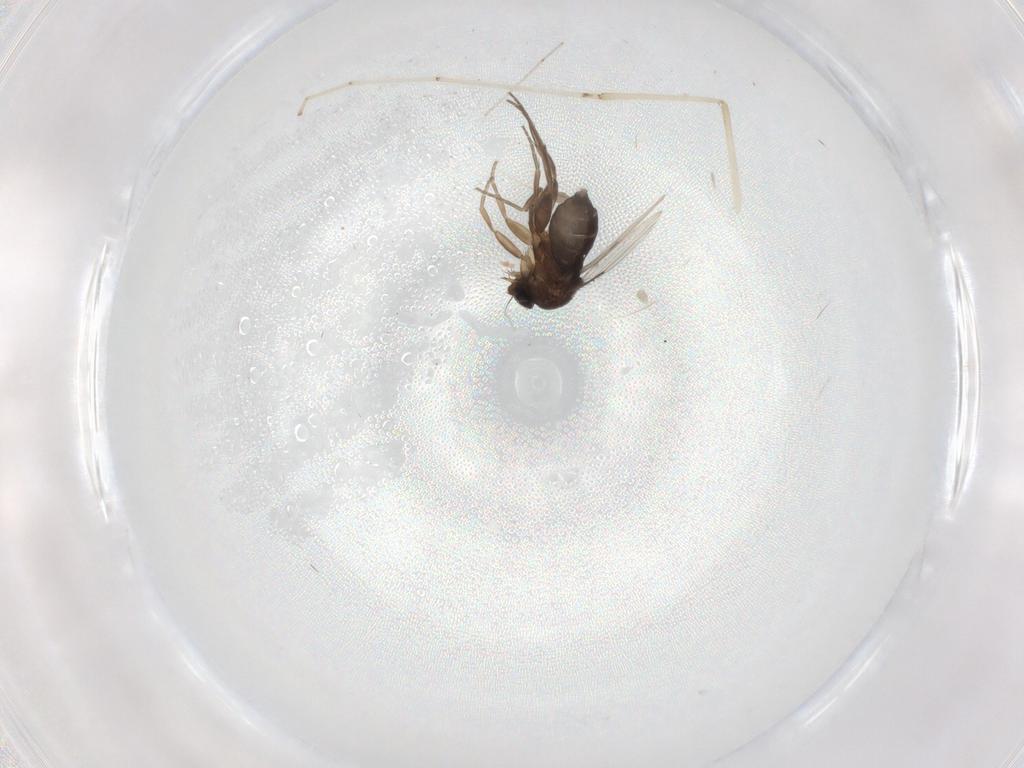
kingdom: Animalia
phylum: Arthropoda
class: Insecta
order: Diptera
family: Phoridae
